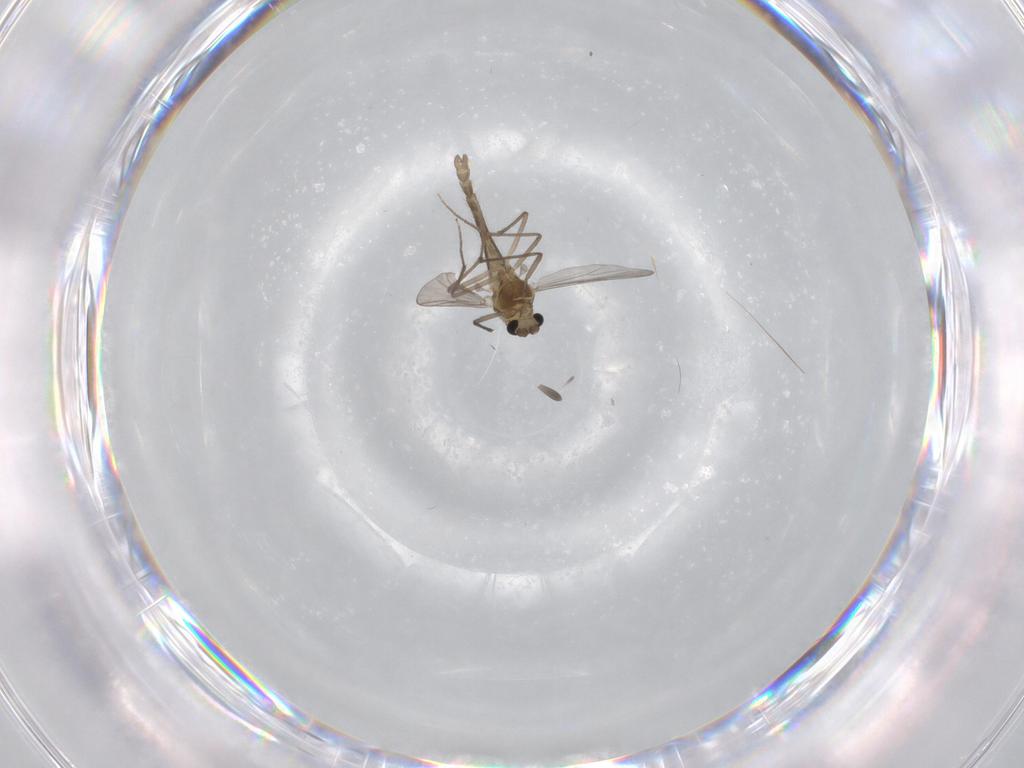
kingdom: Animalia
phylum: Arthropoda
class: Insecta
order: Diptera
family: Chironomidae
